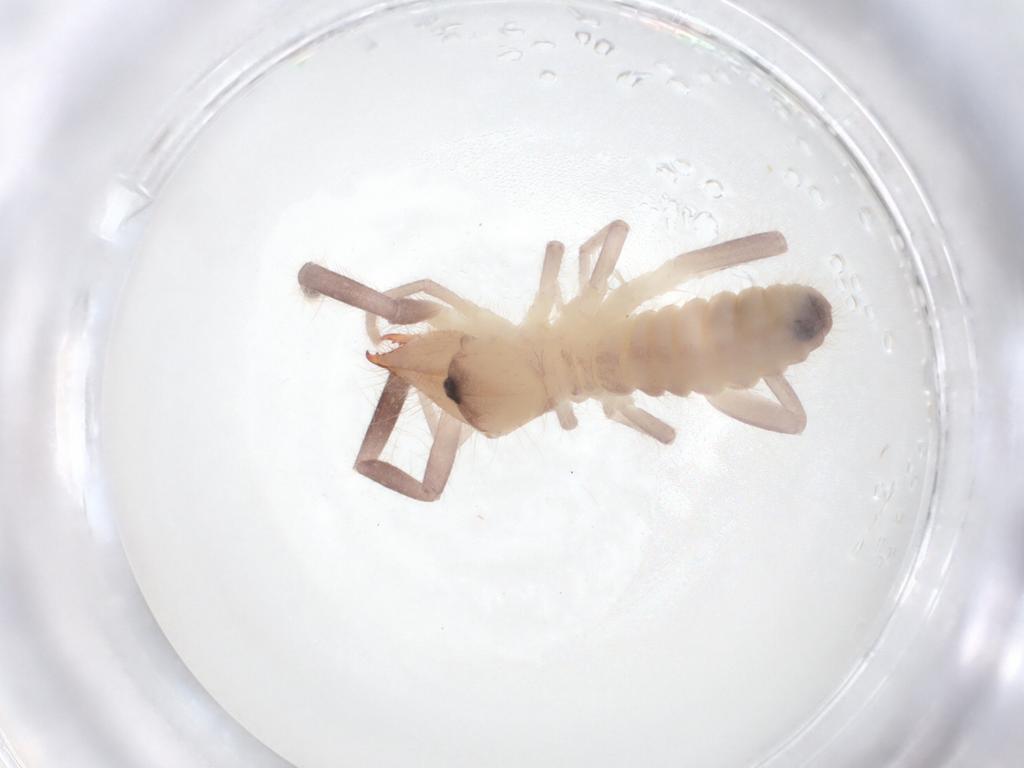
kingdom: Animalia
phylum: Arthropoda
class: Arachnida
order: Solifugae
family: Ammotrechidae
